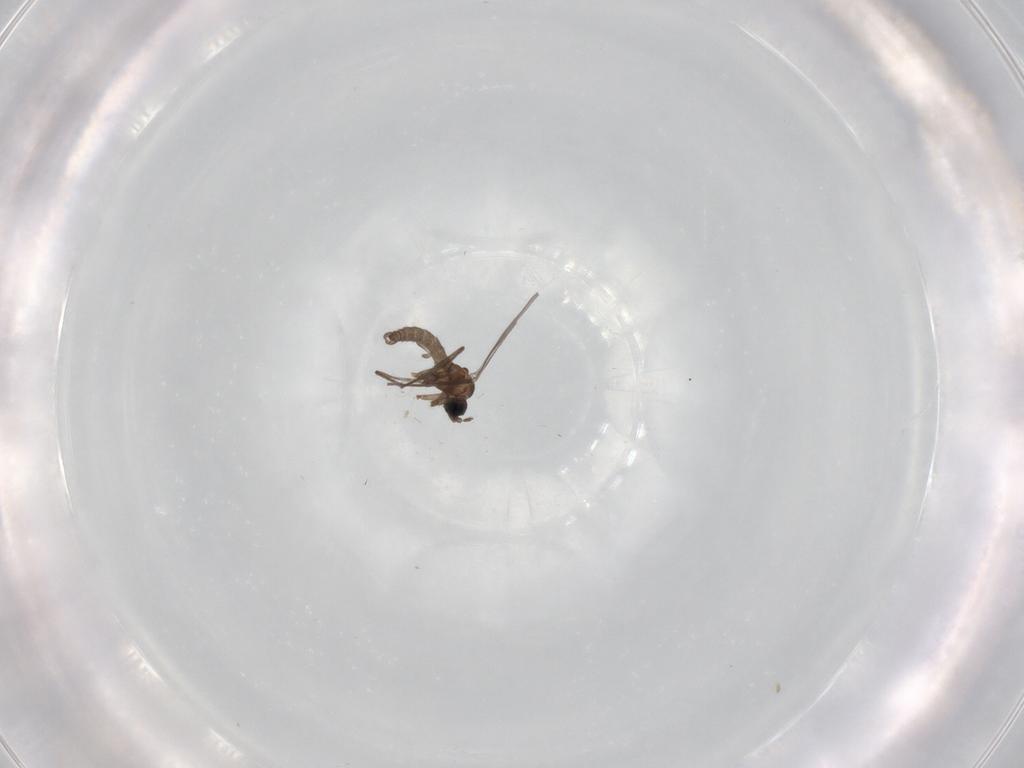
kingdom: Animalia
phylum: Arthropoda
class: Insecta
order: Diptera
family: Sciaridae
